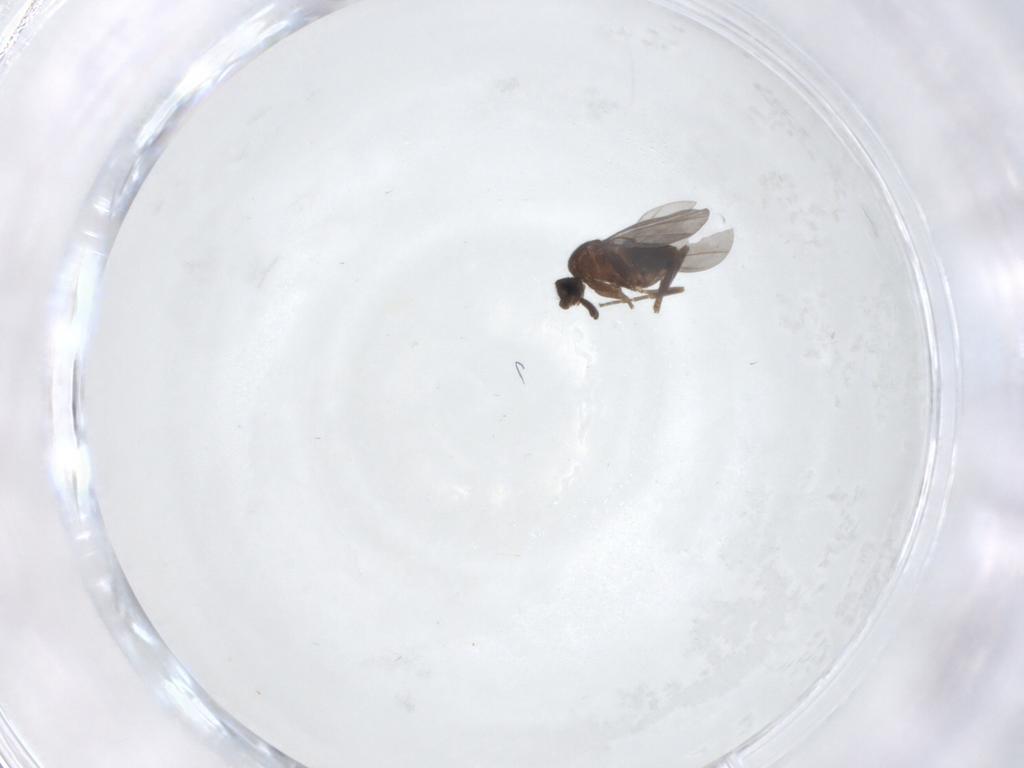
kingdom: Animalia
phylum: Arthropoda
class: Insecta
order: Diptera
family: Phoridae
